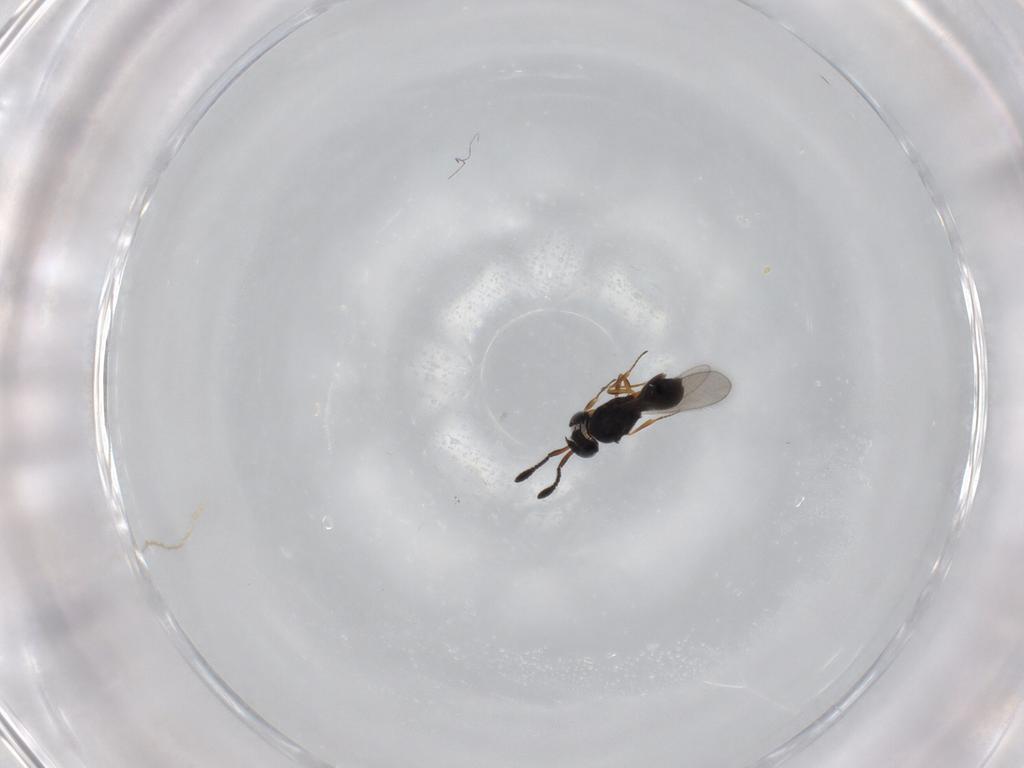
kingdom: Animalia
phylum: Arthropoda
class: Insecta
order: Hymenoptera
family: Scelionidae
